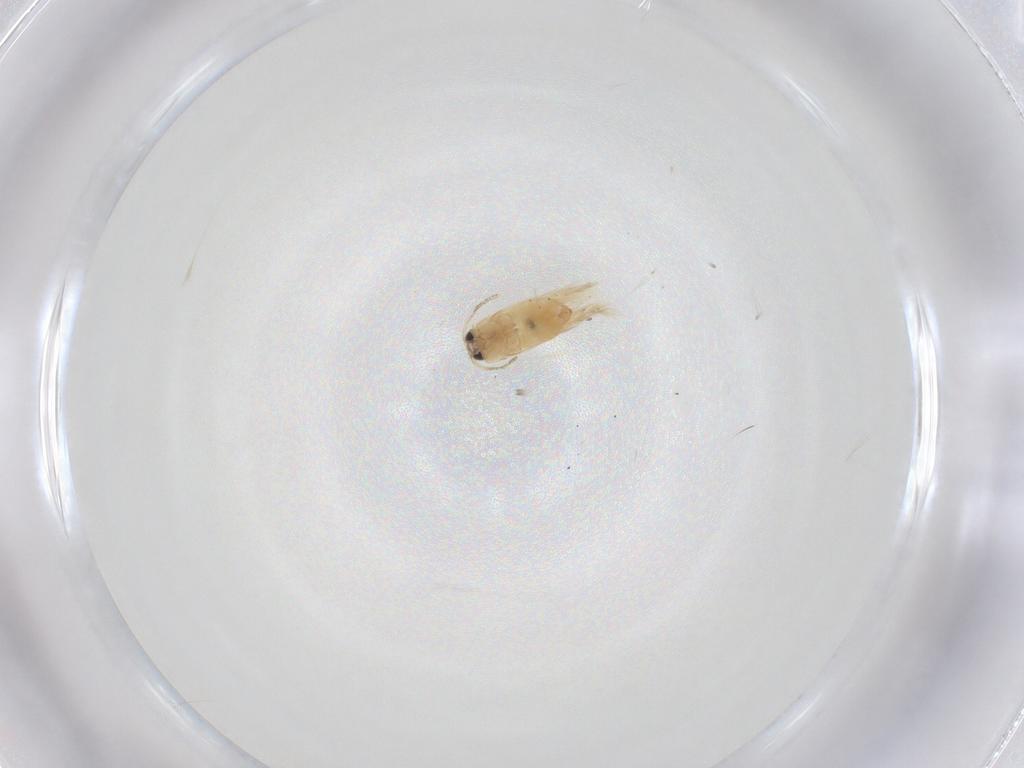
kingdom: Animalia
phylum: Arthropoda
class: Insecta
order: Lepidoptera
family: Crambidae
